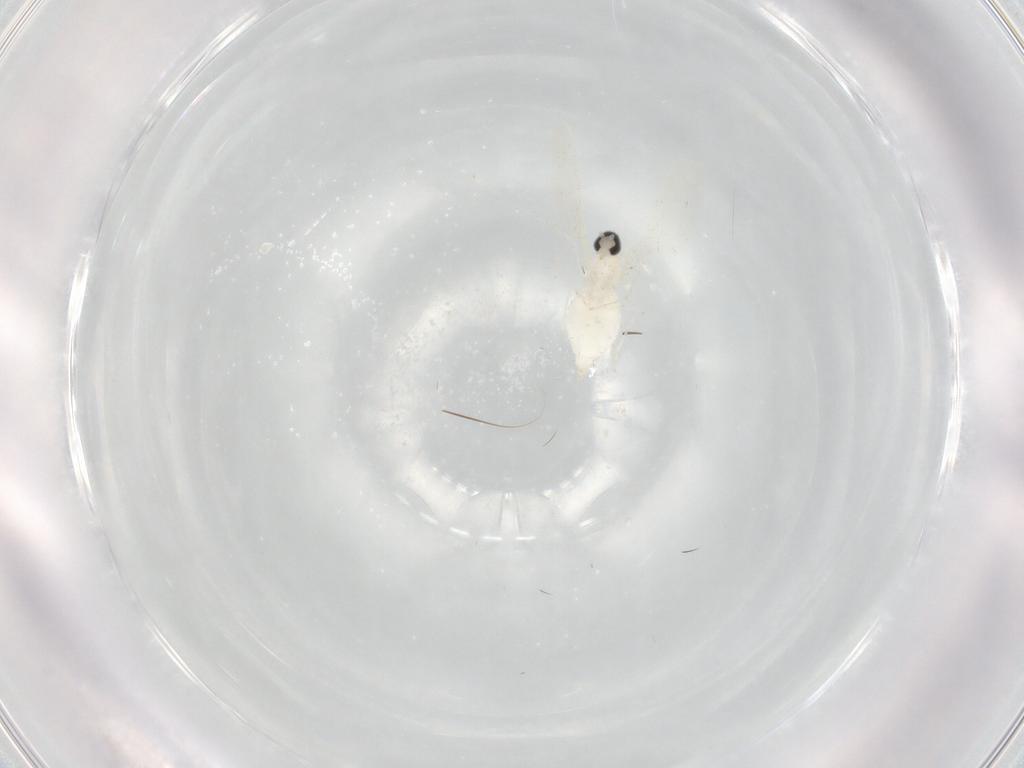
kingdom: Animalia
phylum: Arthropoda
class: Insecta
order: Diptera
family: Cecidomyiidae
